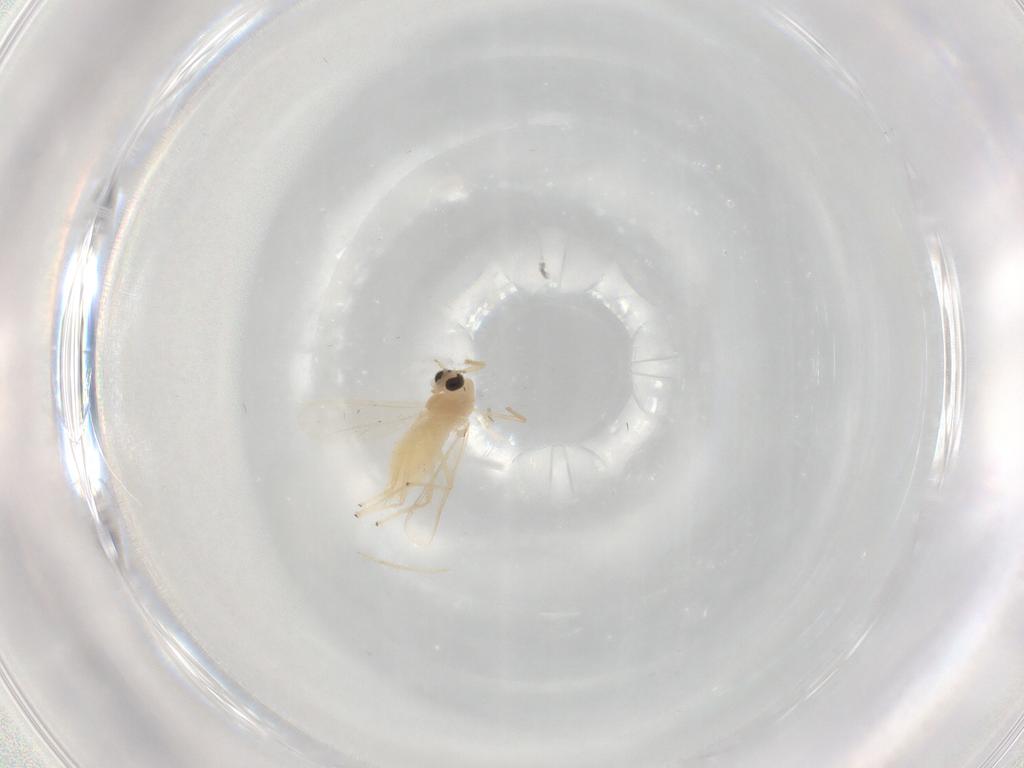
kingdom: Animalia
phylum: Arthropoda
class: Insecta
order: Diptera
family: Chironomidae
